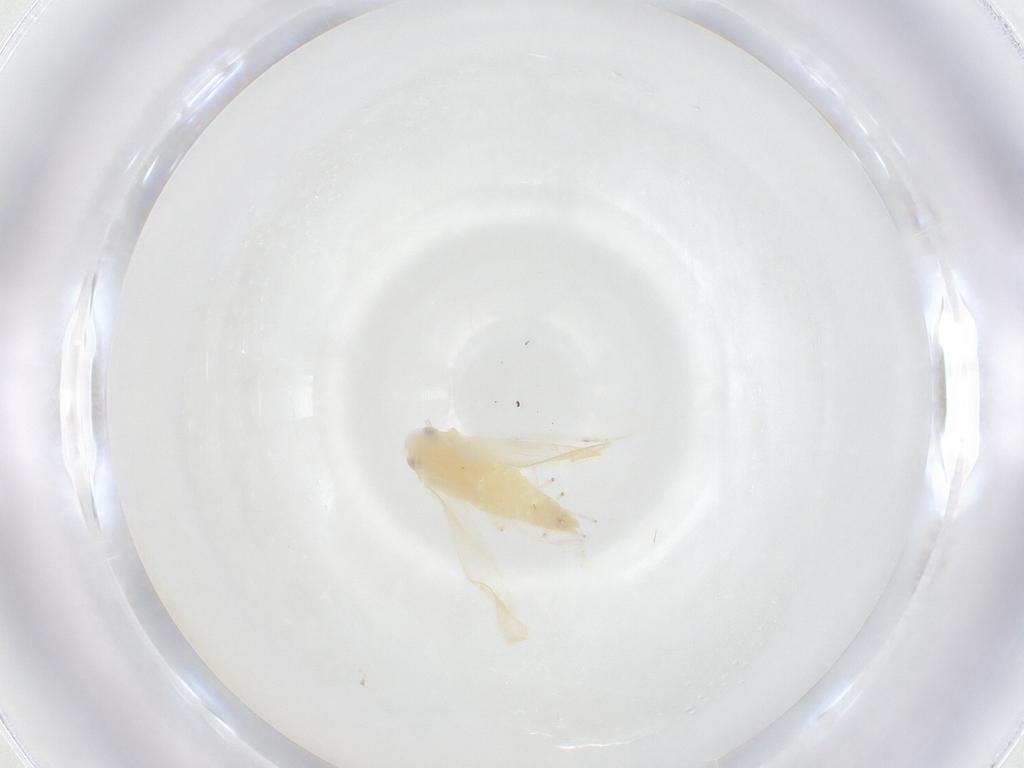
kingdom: Animalia
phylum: Arthropoda
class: Insecta
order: Hemiptera
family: Cicadellidae
